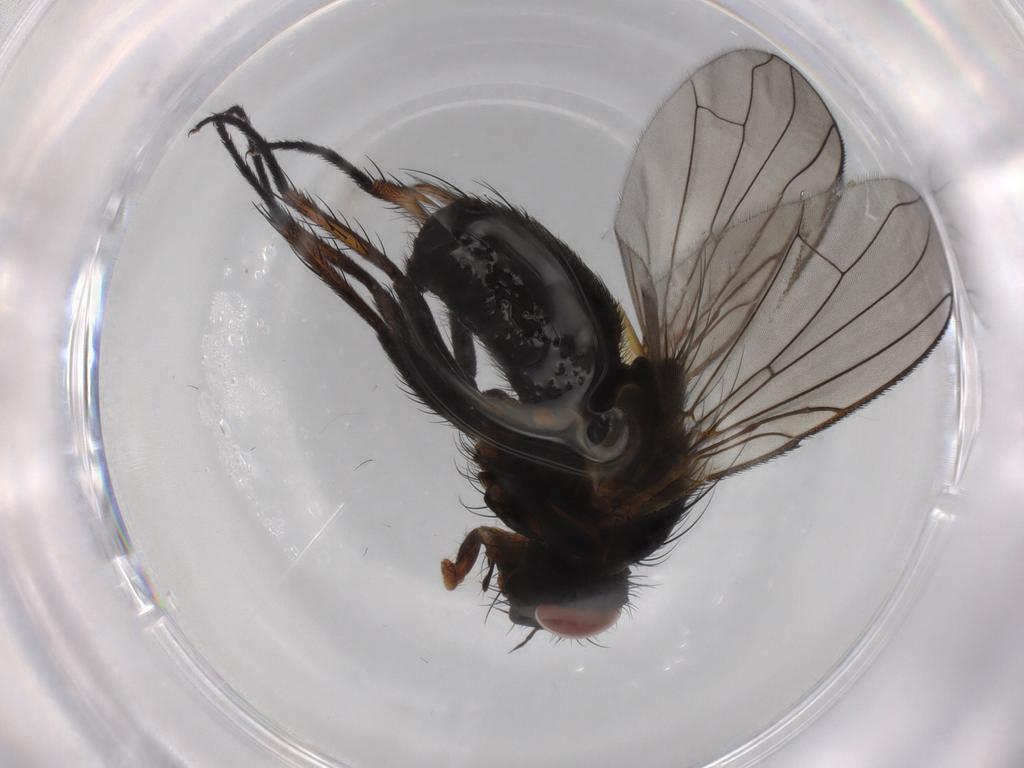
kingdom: Animalia
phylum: Arthropoda
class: Insecta
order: Diptera
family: Tachinidae
